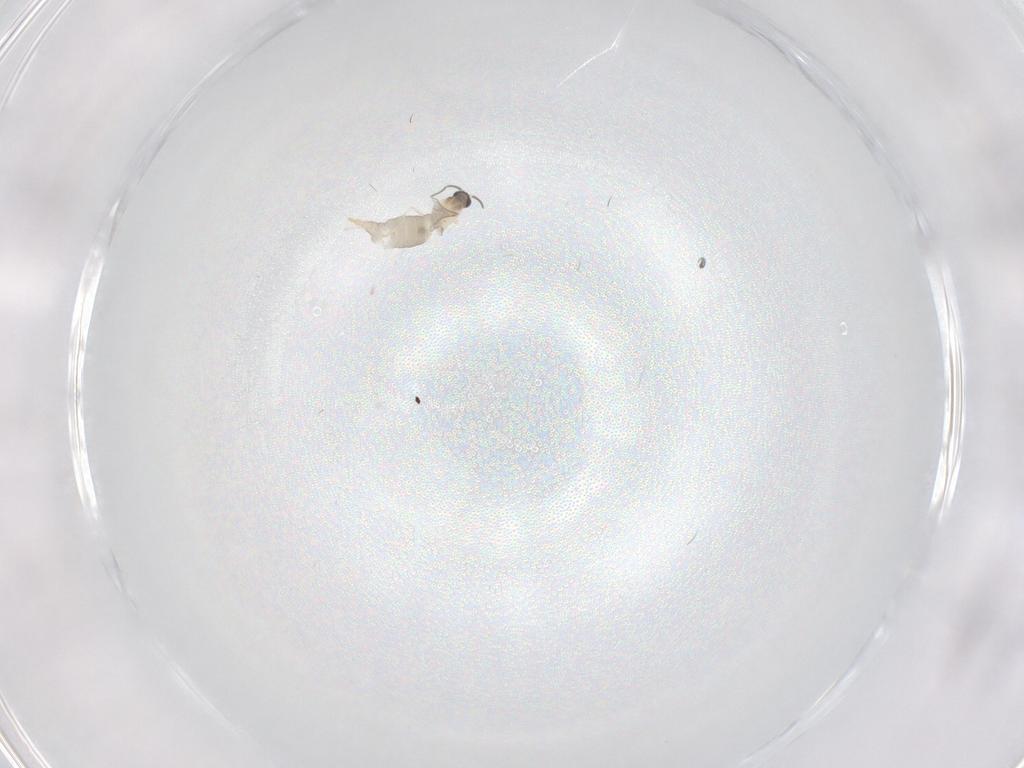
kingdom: Animalia
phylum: Arthropoda
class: Insecta
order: Diptera
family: Cecidomyiidae
